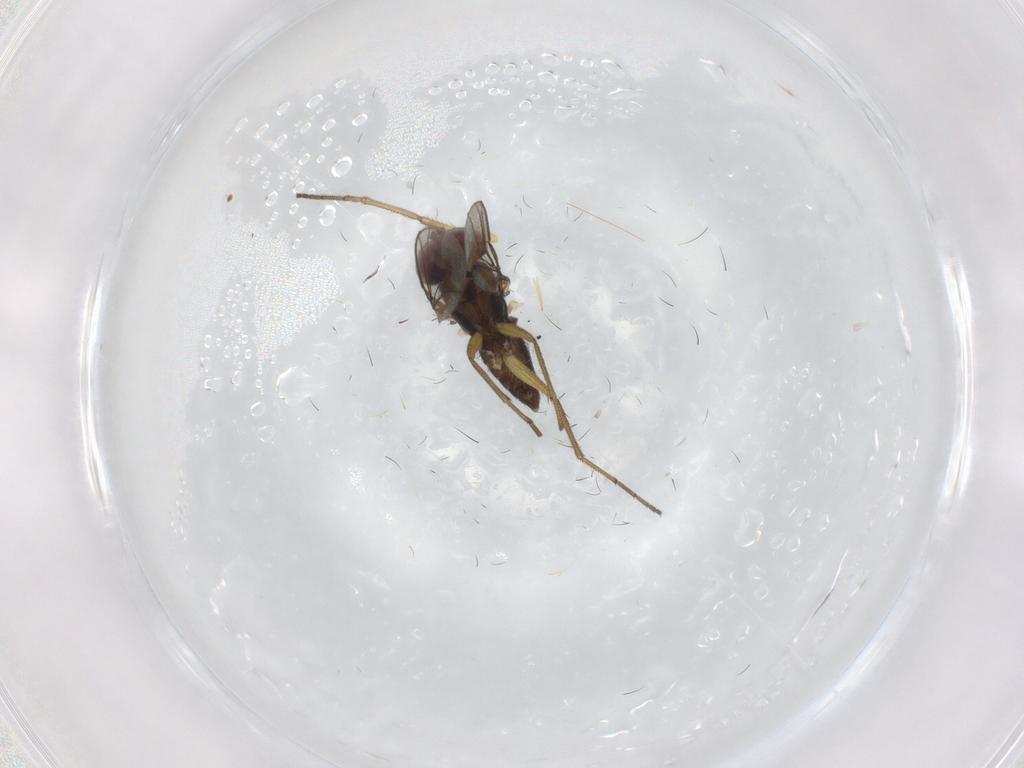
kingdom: Animalia
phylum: Arthropoda
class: Insecta
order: Diptera
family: Dolichopodidae
